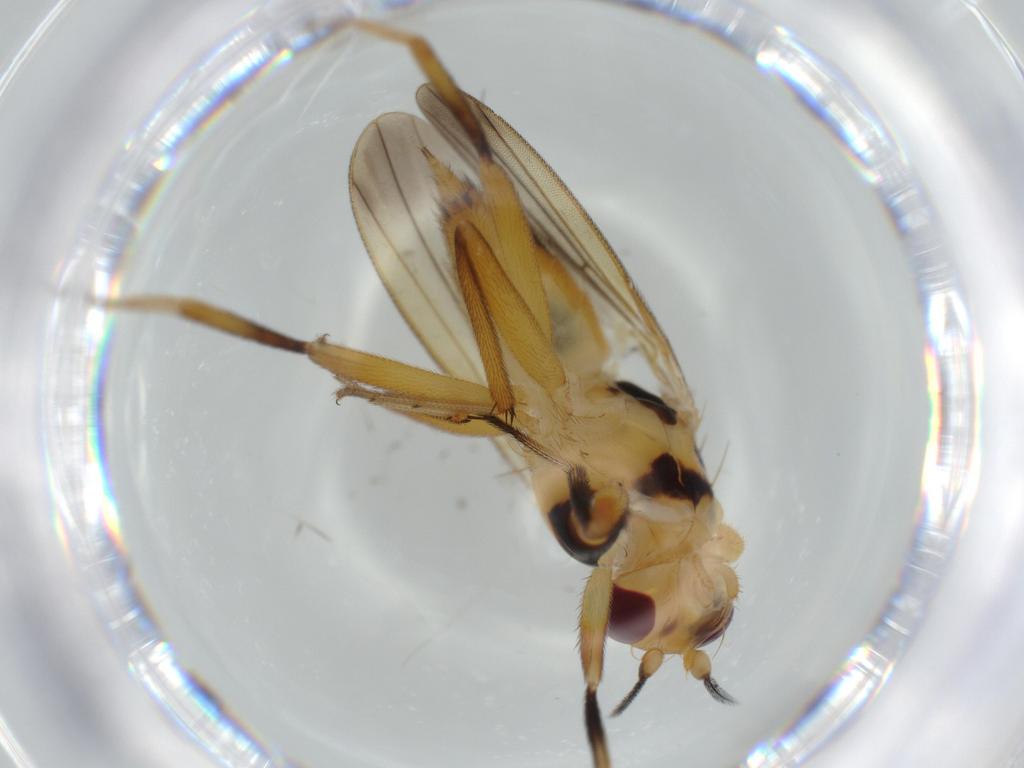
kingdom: Animalia
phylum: Arthropoda
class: Insecta
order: Diptera
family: Clusiidae
